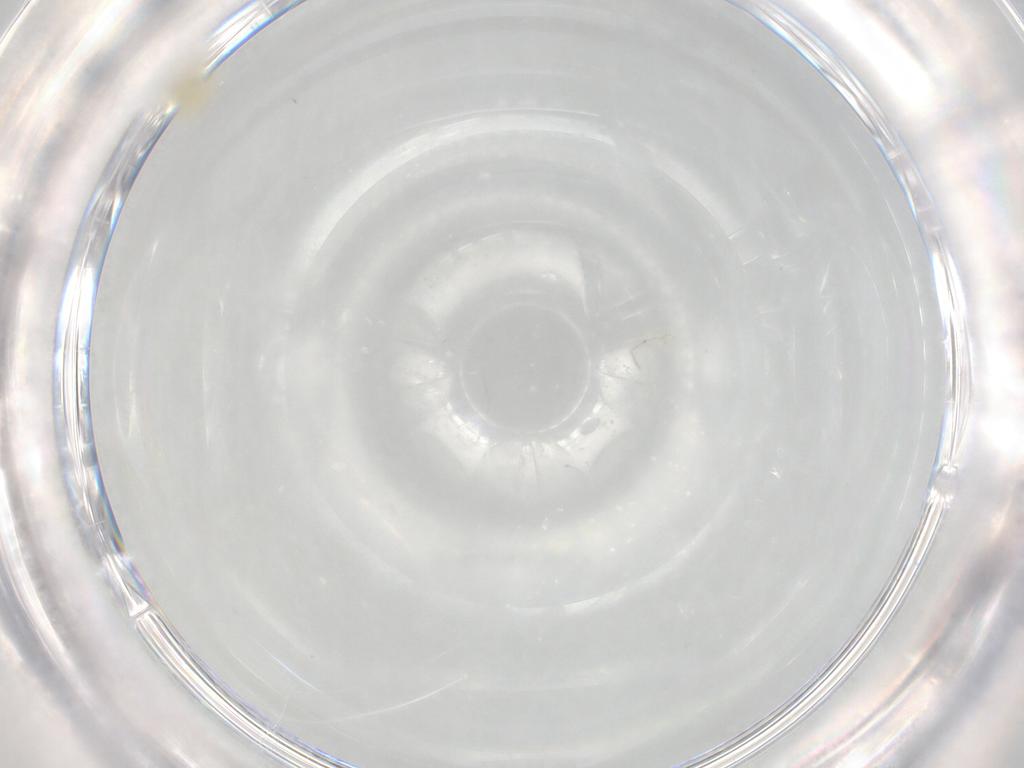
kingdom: Animalia
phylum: Arthropoda
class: Arachnida
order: Trombidiformes
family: Rhagidiidae
